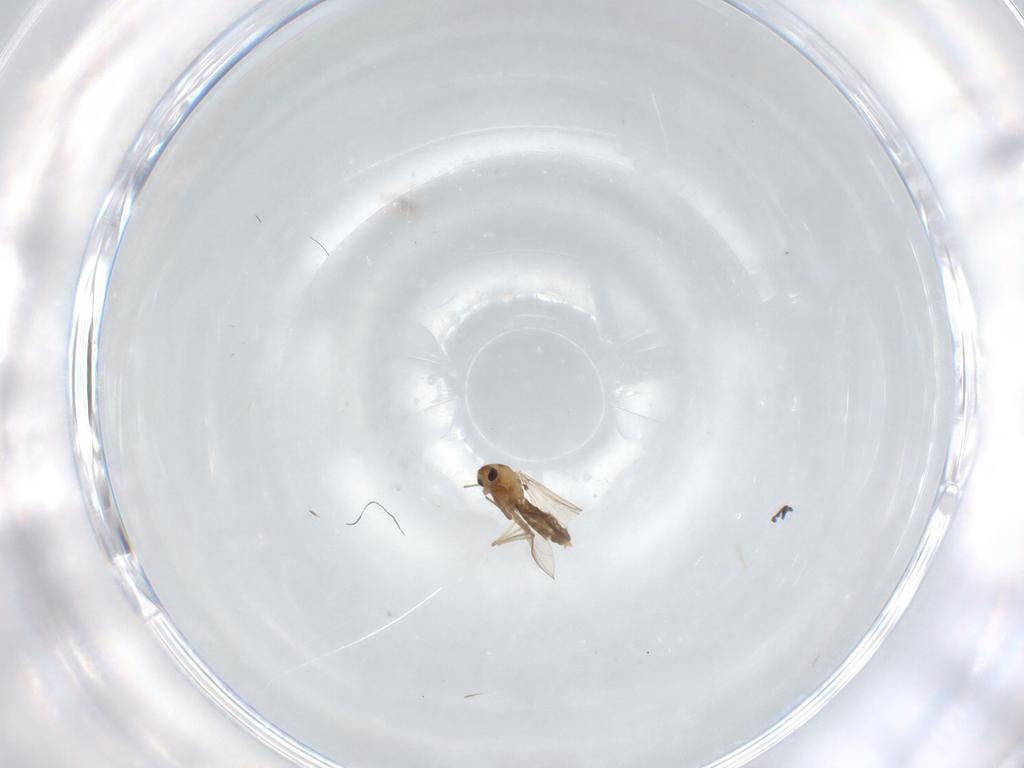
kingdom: Animalia
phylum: Arthropoda
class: Insecta
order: Diptera
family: Chironomidae
